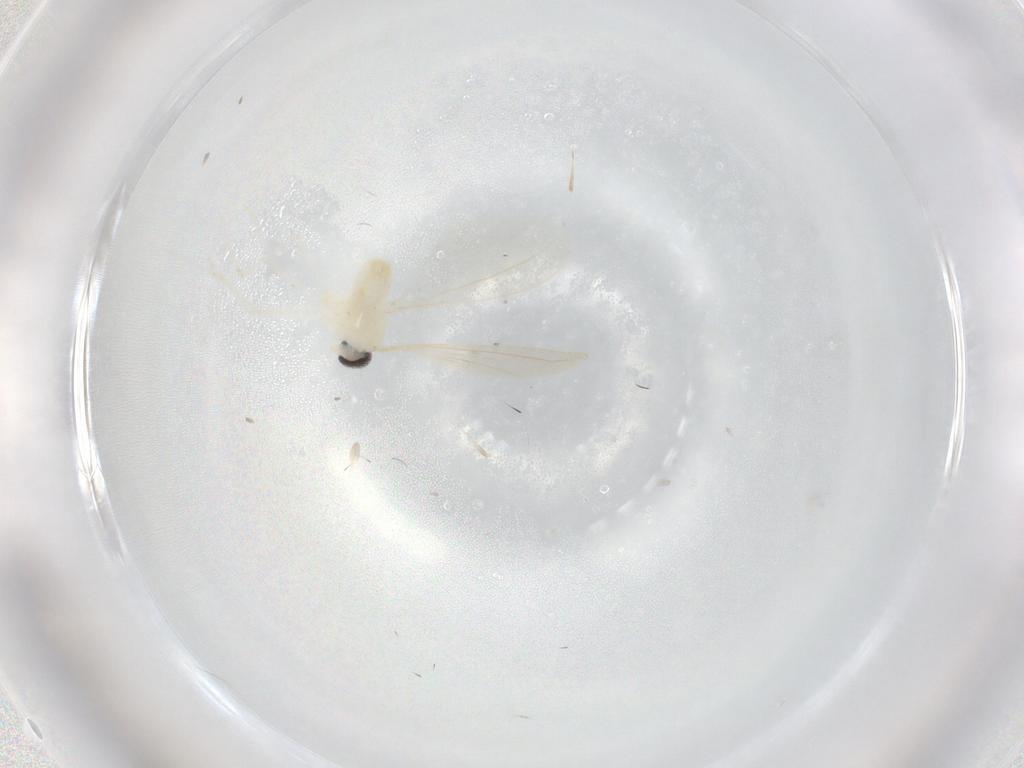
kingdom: Animalia
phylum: Arthropoda
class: Insecta
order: Diptera
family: Cecidomyiidae
